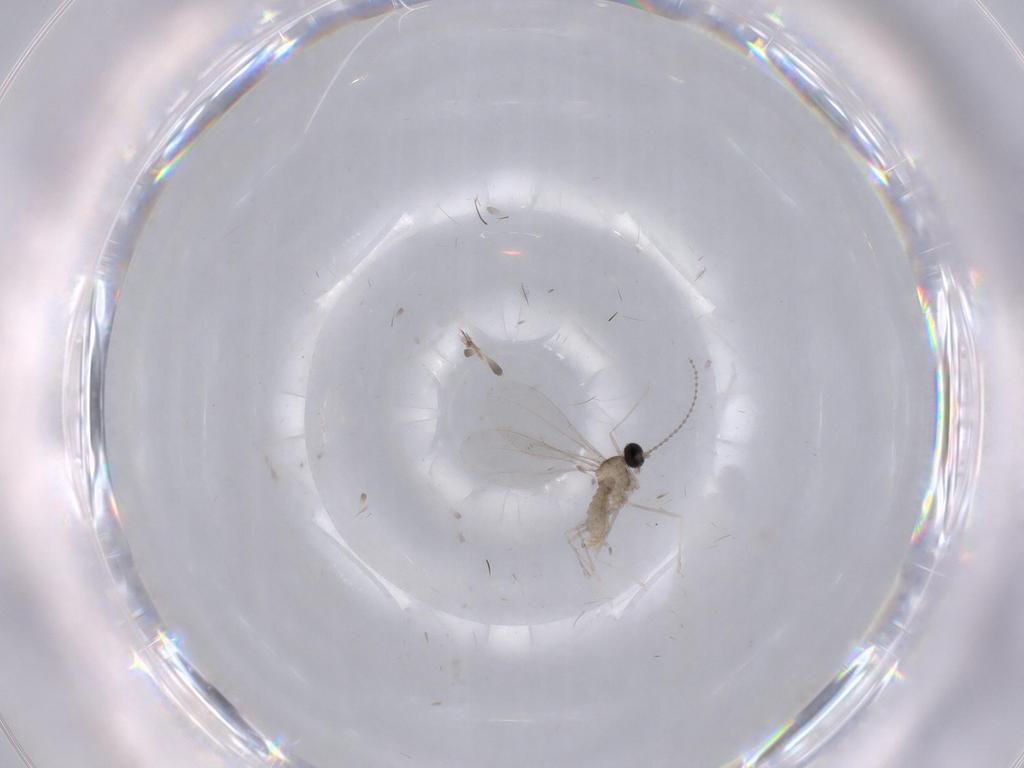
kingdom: Animalia
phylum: Arthropoda
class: Insecta
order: Diptera
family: Cecidomyiidae
